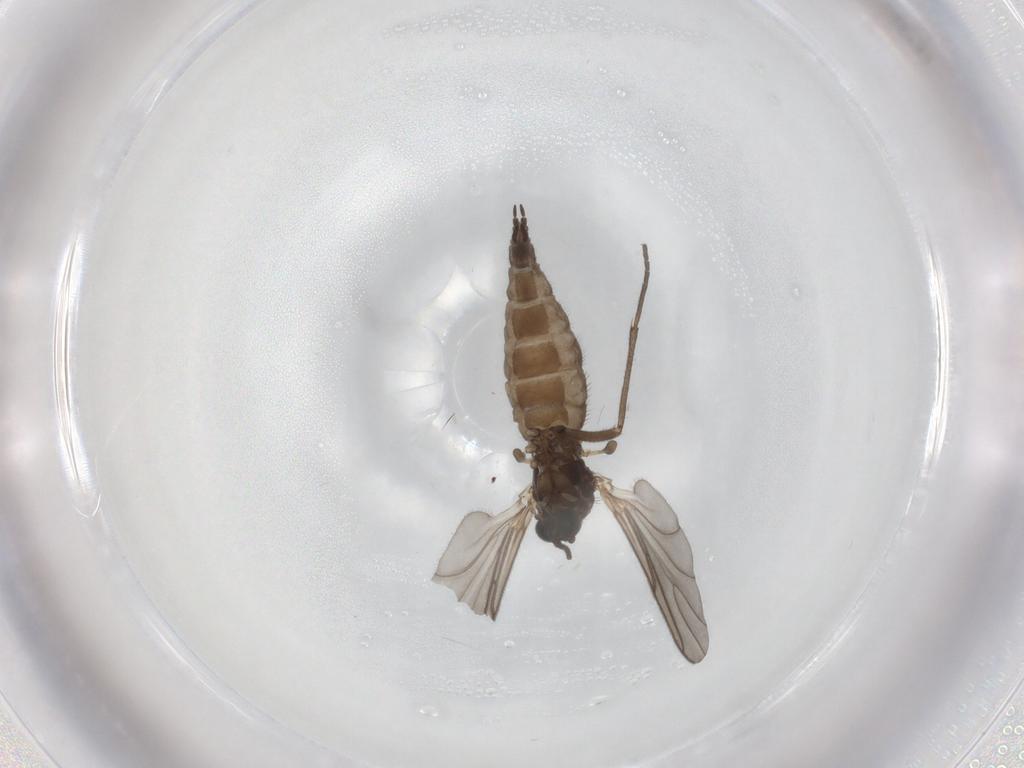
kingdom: Animalia
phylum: Arthropoda
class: Insecta
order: Diptera
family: Sciaridae
